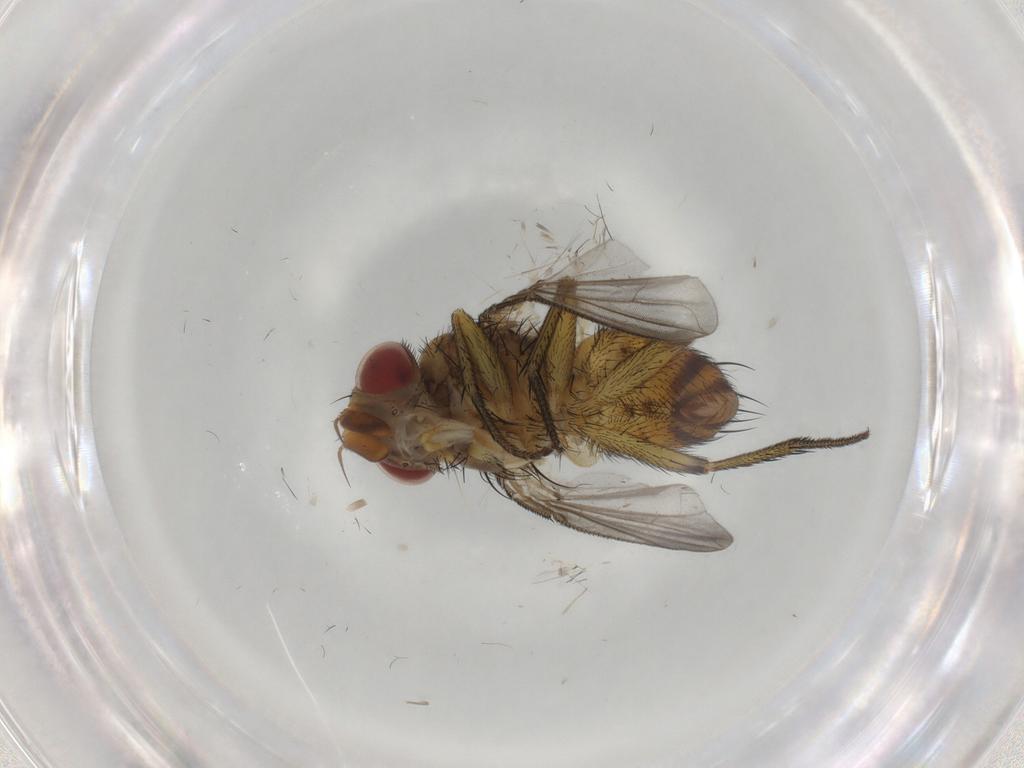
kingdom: Animalia
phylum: Arthropoda
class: Insecta
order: Diptera
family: Tachinidae
